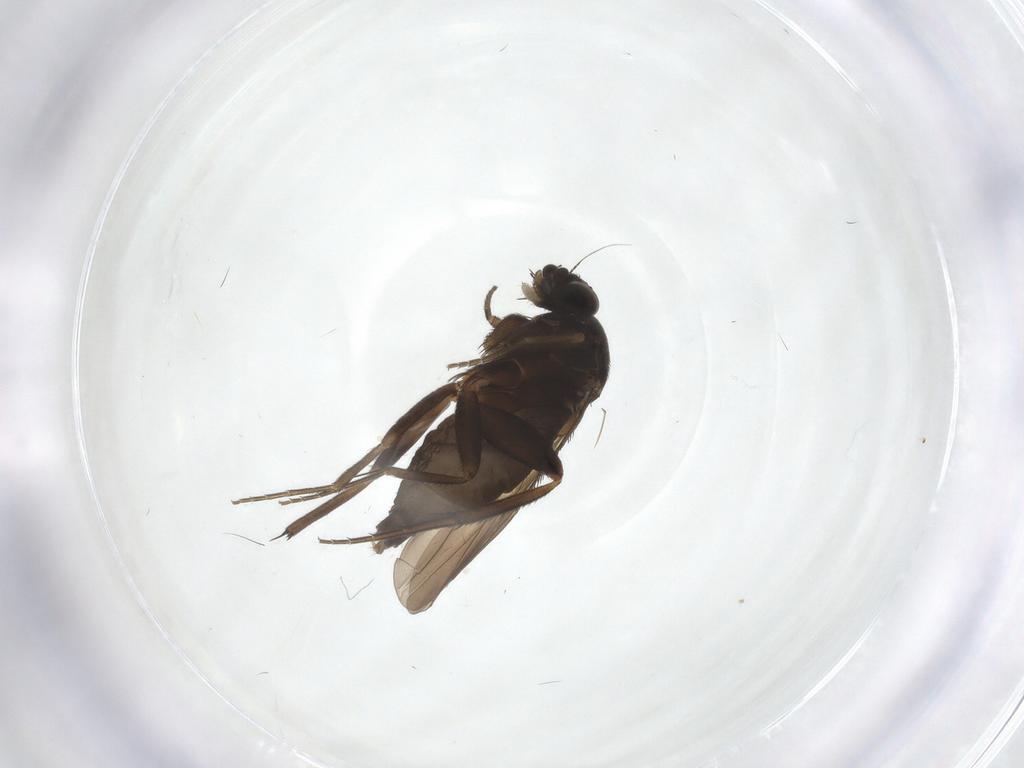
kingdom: Animalia
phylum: Arthropoda
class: Insecta
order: Diptera
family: Phoridae
